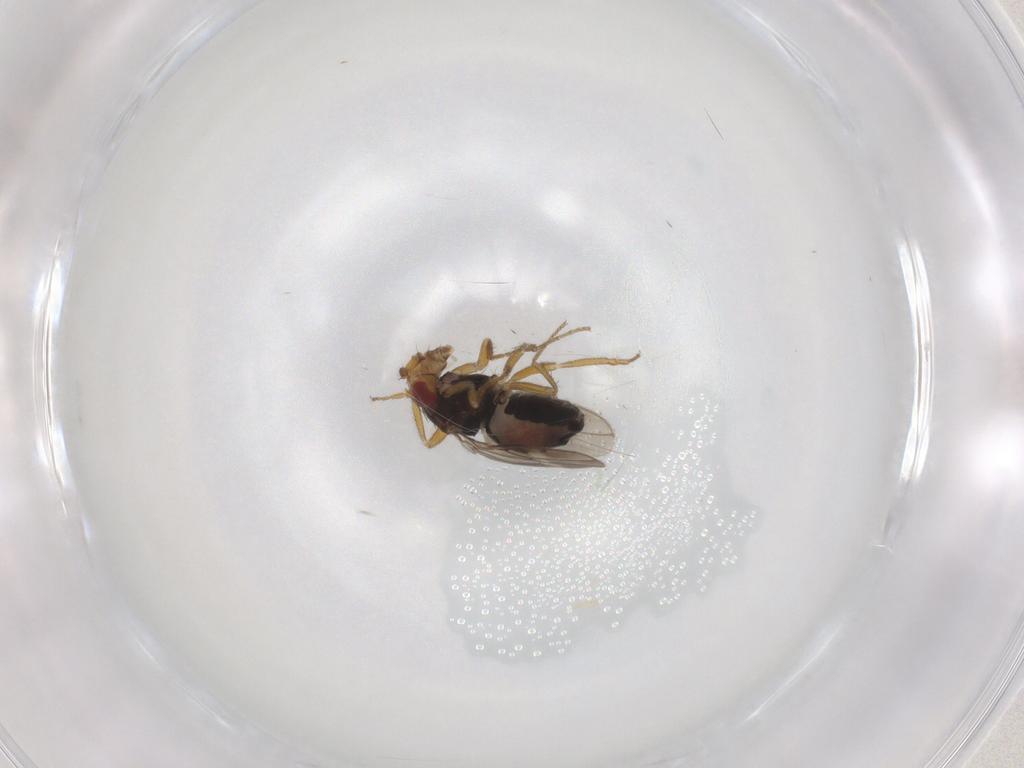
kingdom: Animalia
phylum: Arthropoda
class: Insecta
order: Diptera
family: Sphaeroceridae
